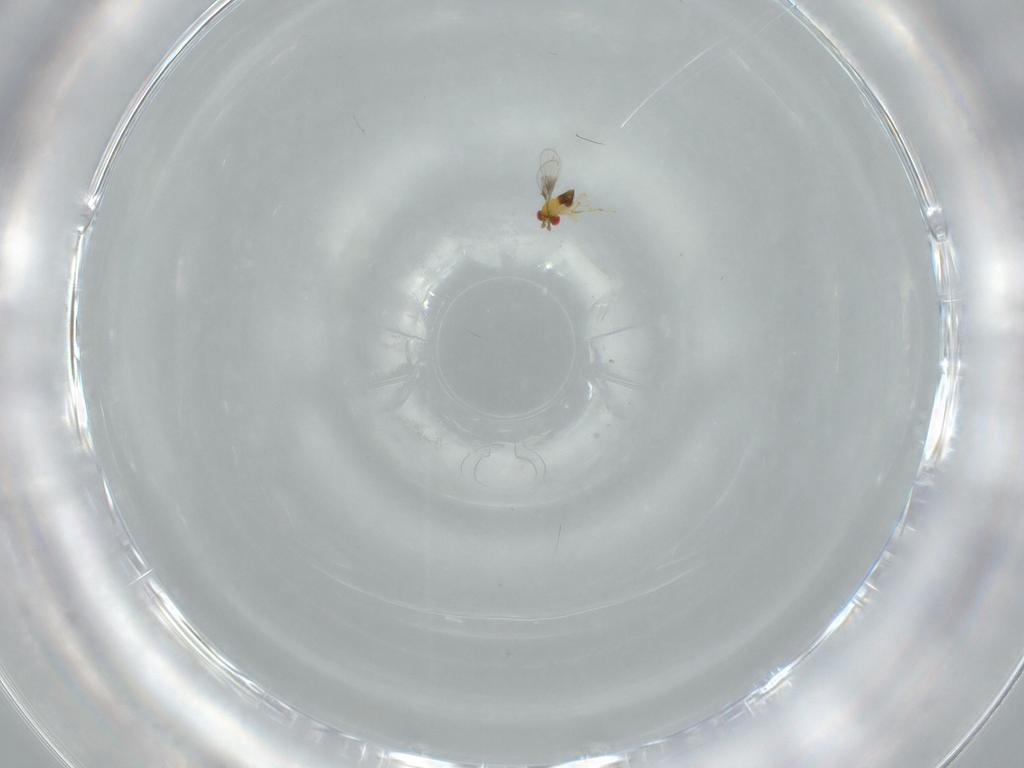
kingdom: Animalia
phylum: Arthropoda
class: Insecta
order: Hymenoptera
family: Trichogrammatidae
